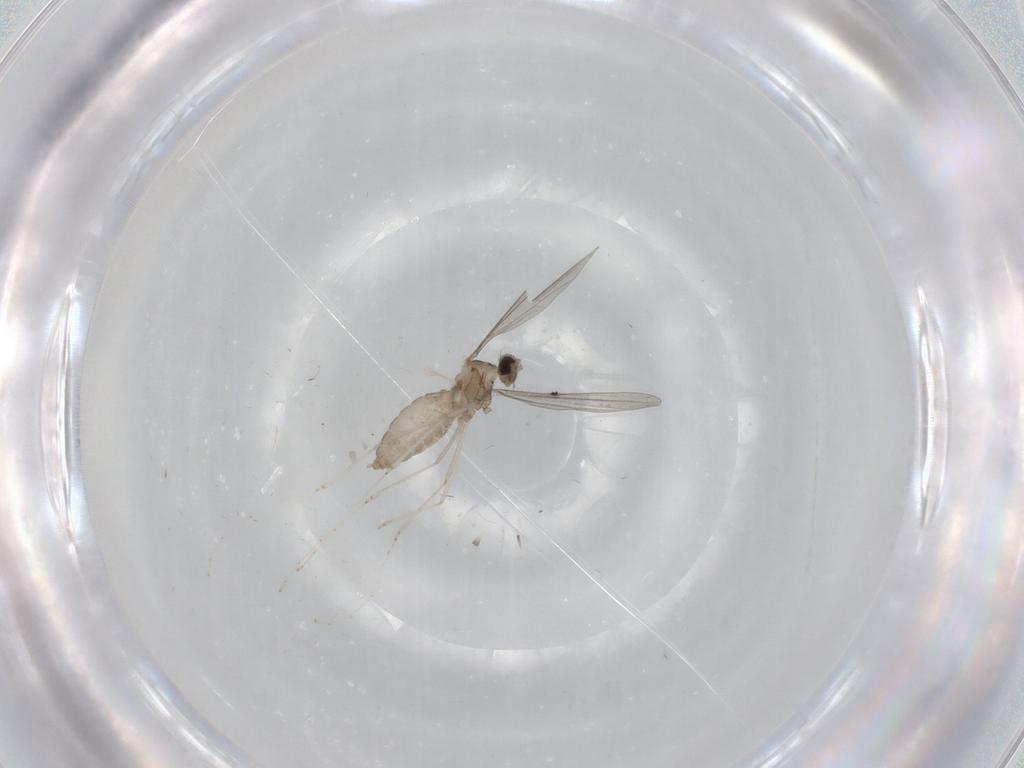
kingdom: Animalia
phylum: Arthropoda
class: Insecta
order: Diptera
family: Cecidomyiidae
